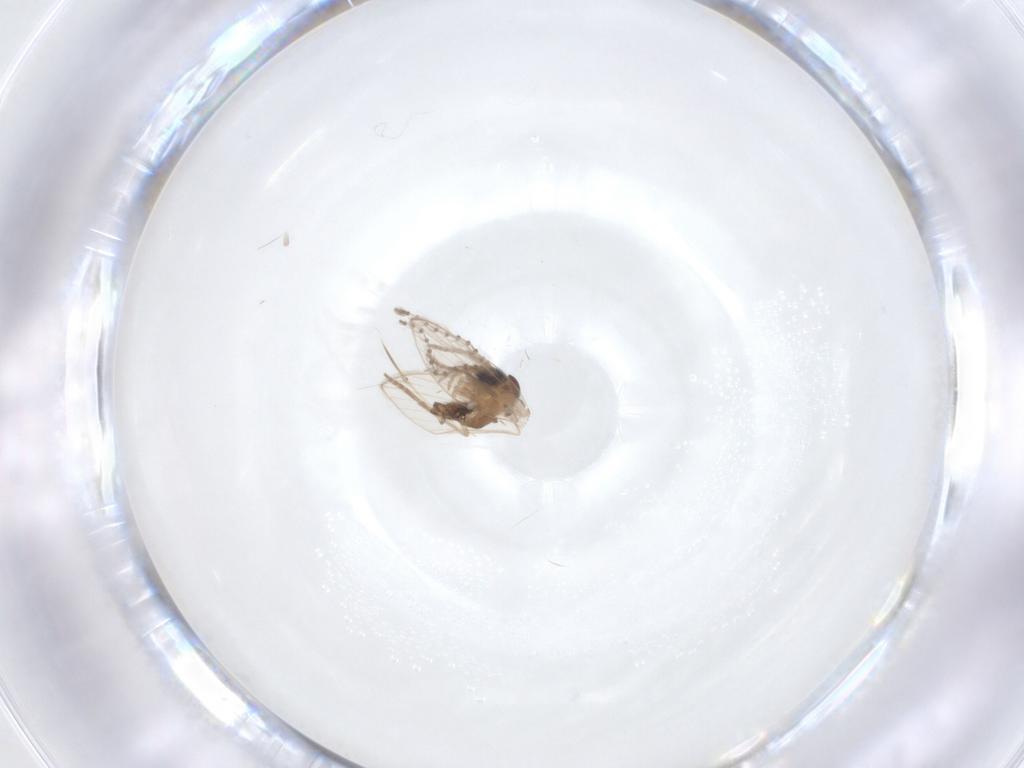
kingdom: Animalia
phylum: Arthropoda
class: Insecta
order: Diptera
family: Psychodidae
